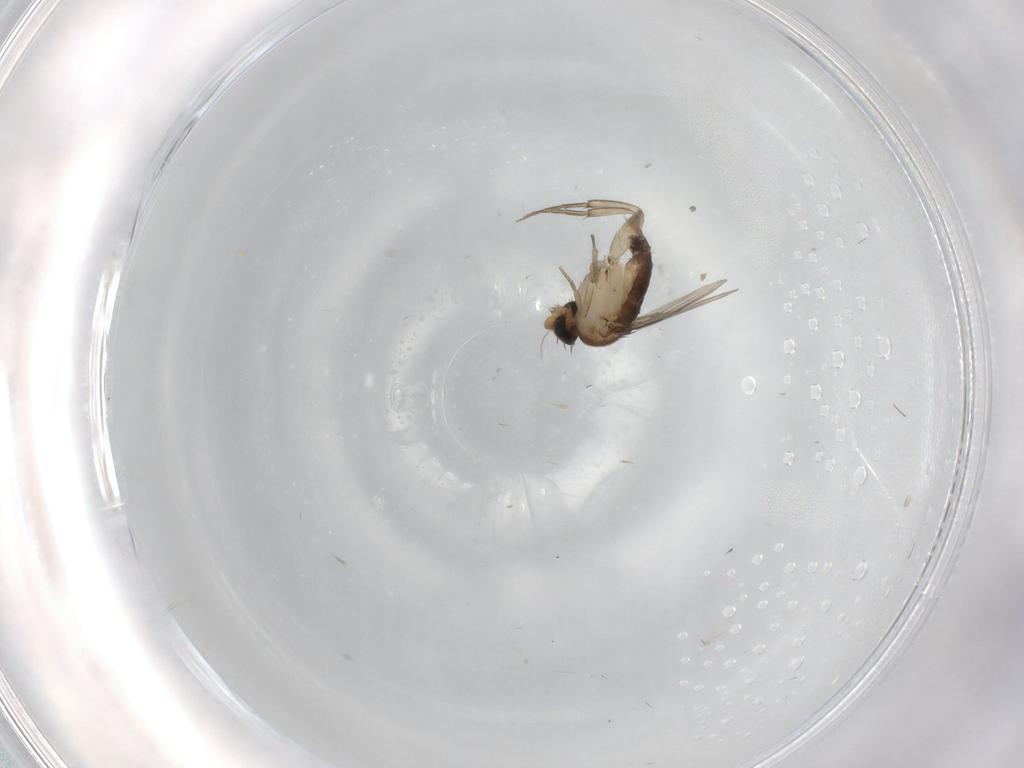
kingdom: Animalia
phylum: Arthropoda
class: Insecta
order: Diptera
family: Phoridae
